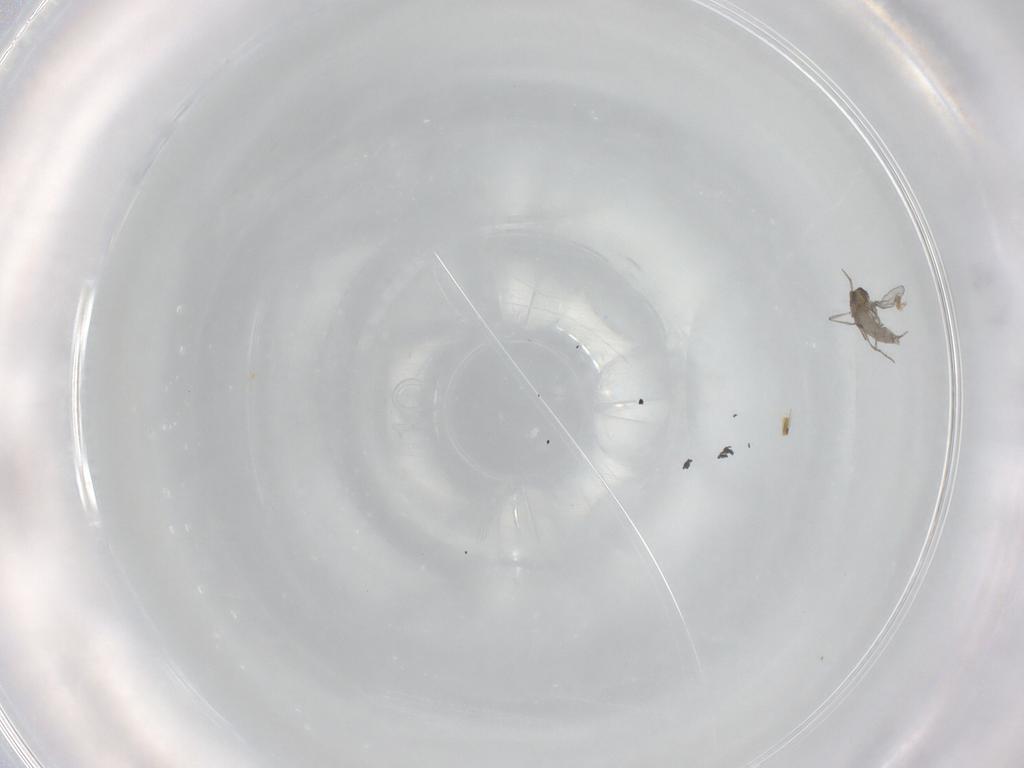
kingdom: Animalia
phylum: Arthropoda
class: Insecta
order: Diptera
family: Cecidomyiidae
